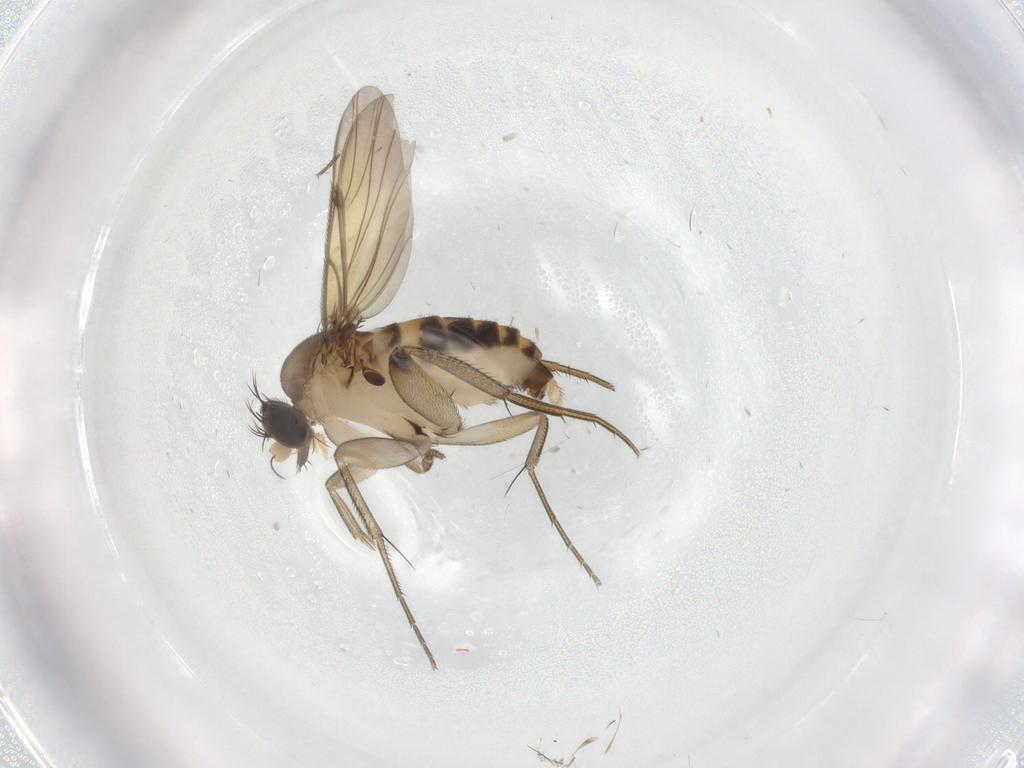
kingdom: Animalia
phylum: Arthropoda
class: Insecta
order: Diptera
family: Phoridae
